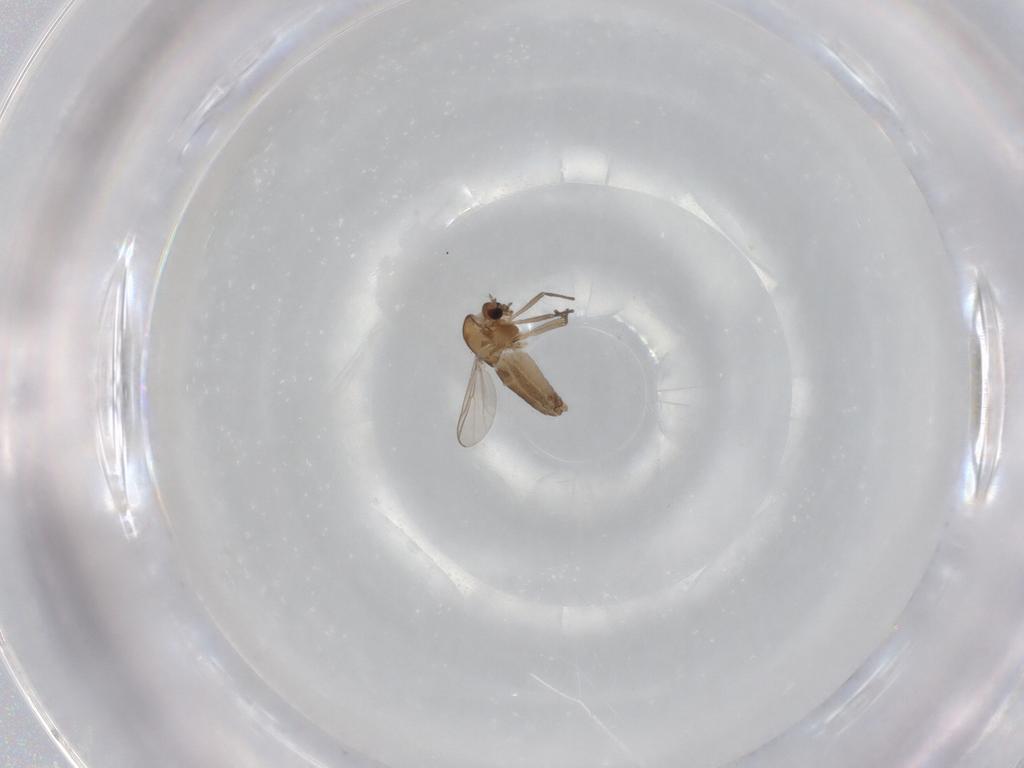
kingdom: Animalia
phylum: Arthropoda
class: Insecta
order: Diptera
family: Chironomidae
